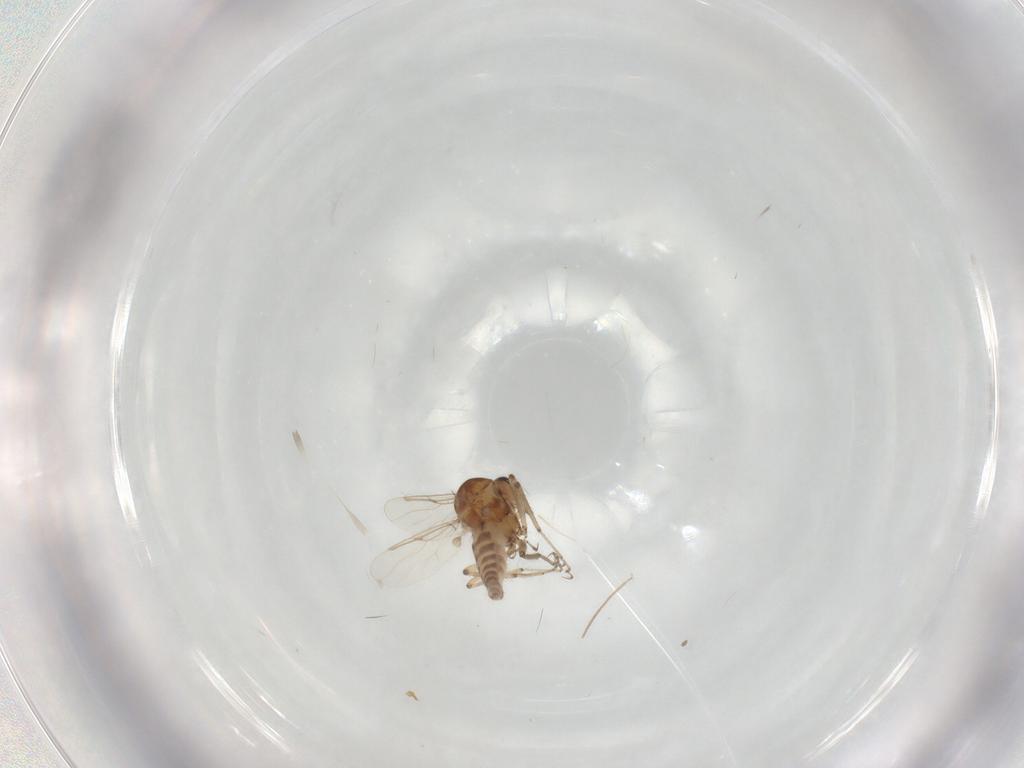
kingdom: Animalia
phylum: Arthropoda
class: Insecta
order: Diptera
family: Ceratopogonidae
